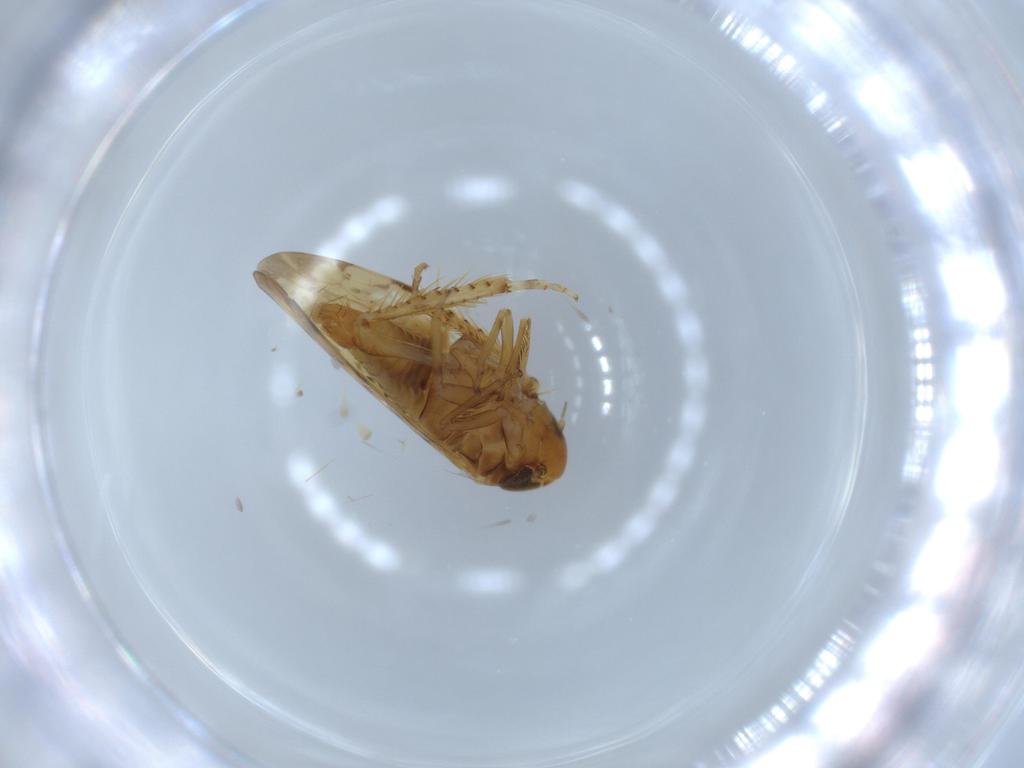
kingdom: Animalia
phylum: Arthropoda
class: Insecta
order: Hemiptera
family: Cicadellidae
